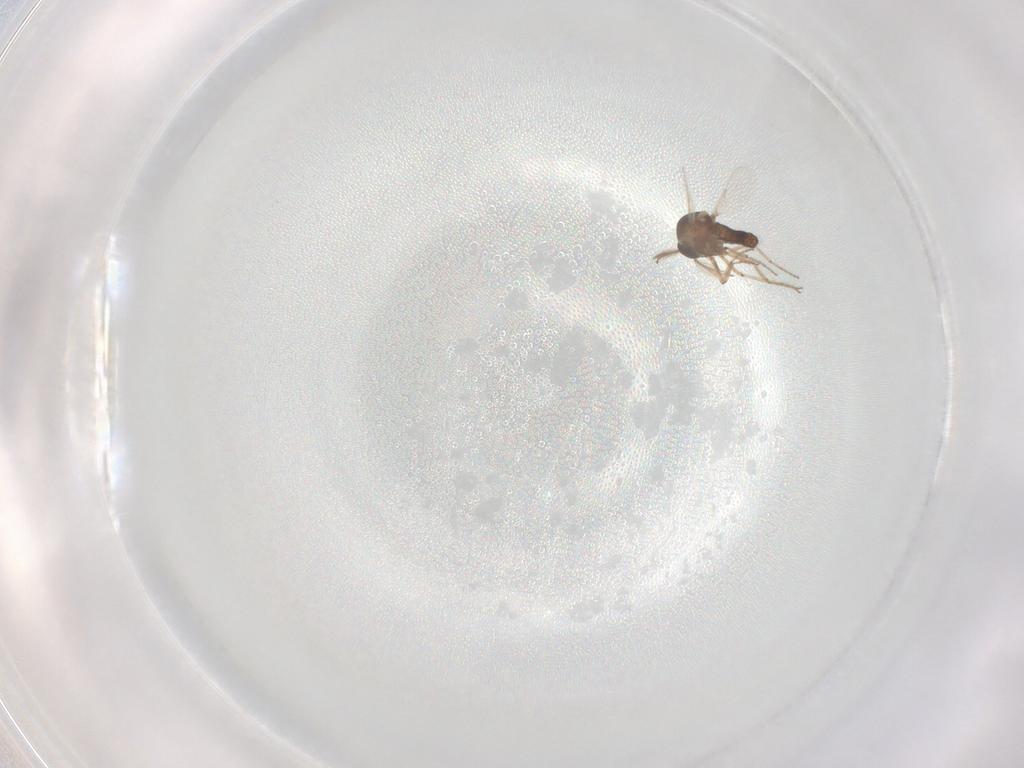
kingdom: Animalia
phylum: Arthropoda
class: Insecta
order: Diptera
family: Ceratopogonidae
